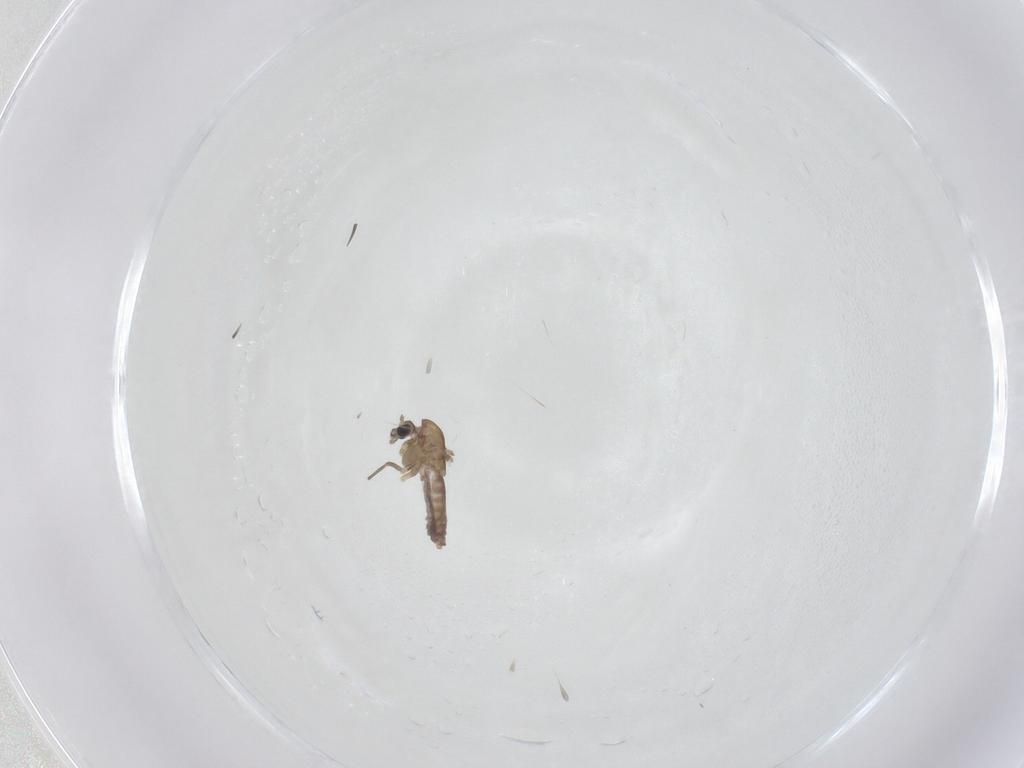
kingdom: Animalia
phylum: Arthropoda
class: Insecta
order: Diptera
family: Chironomidae
